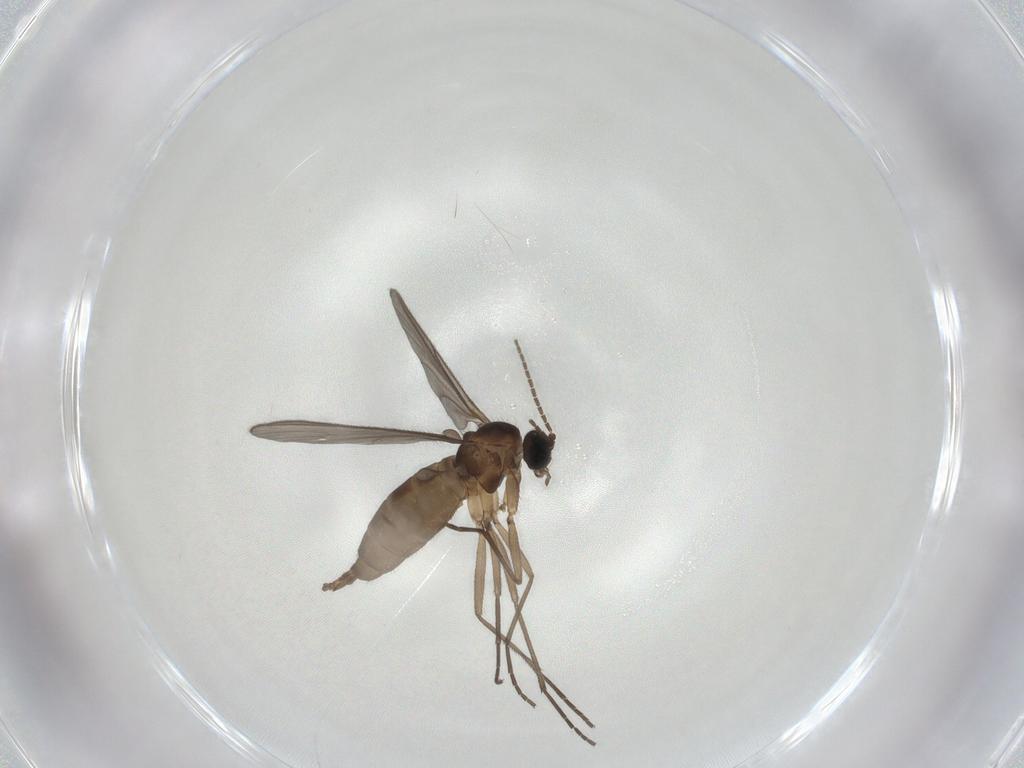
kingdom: Animalia
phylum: Arthropoda
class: Insecta
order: Diptera
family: Sciaridae
